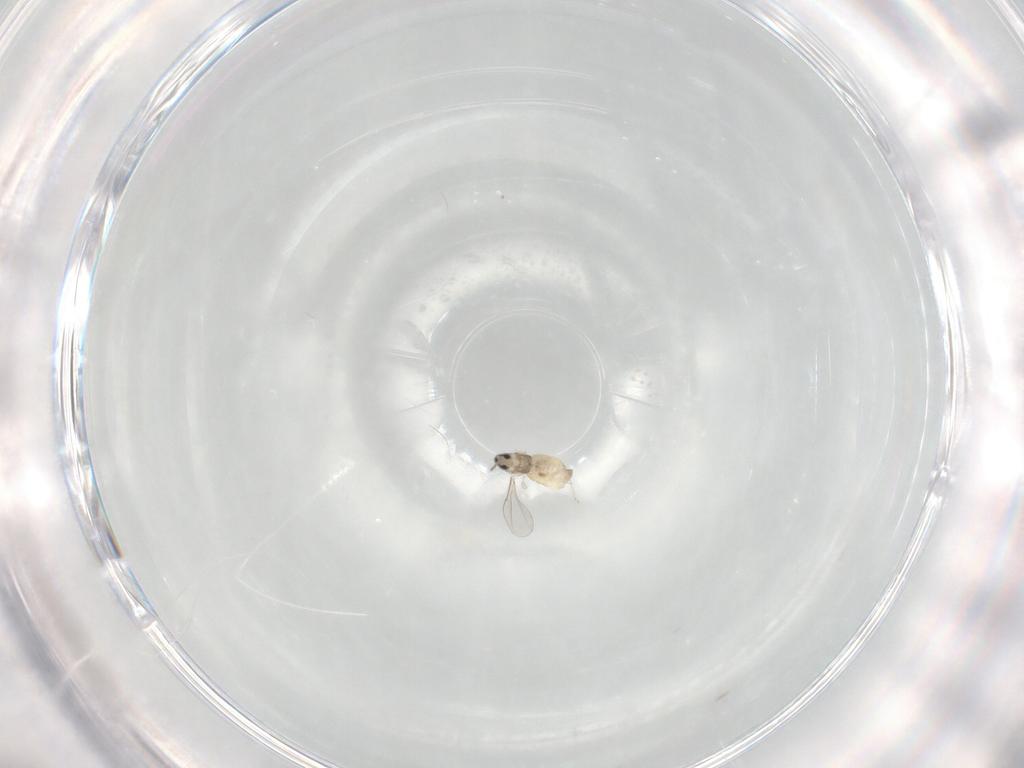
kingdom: Animalia
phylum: Arthropoda
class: Insecta
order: Diptera
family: Cecidomyiidae
